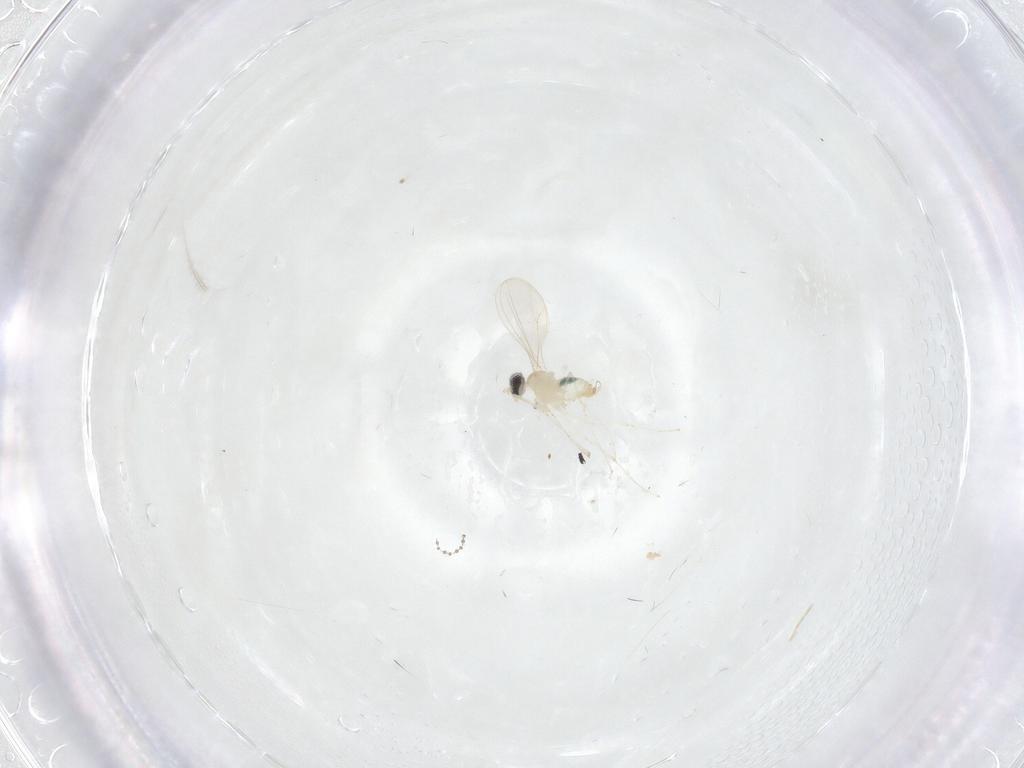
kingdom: Animalia
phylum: Arthropoda
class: Insecta
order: Diptera
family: Cecidomyiidae
